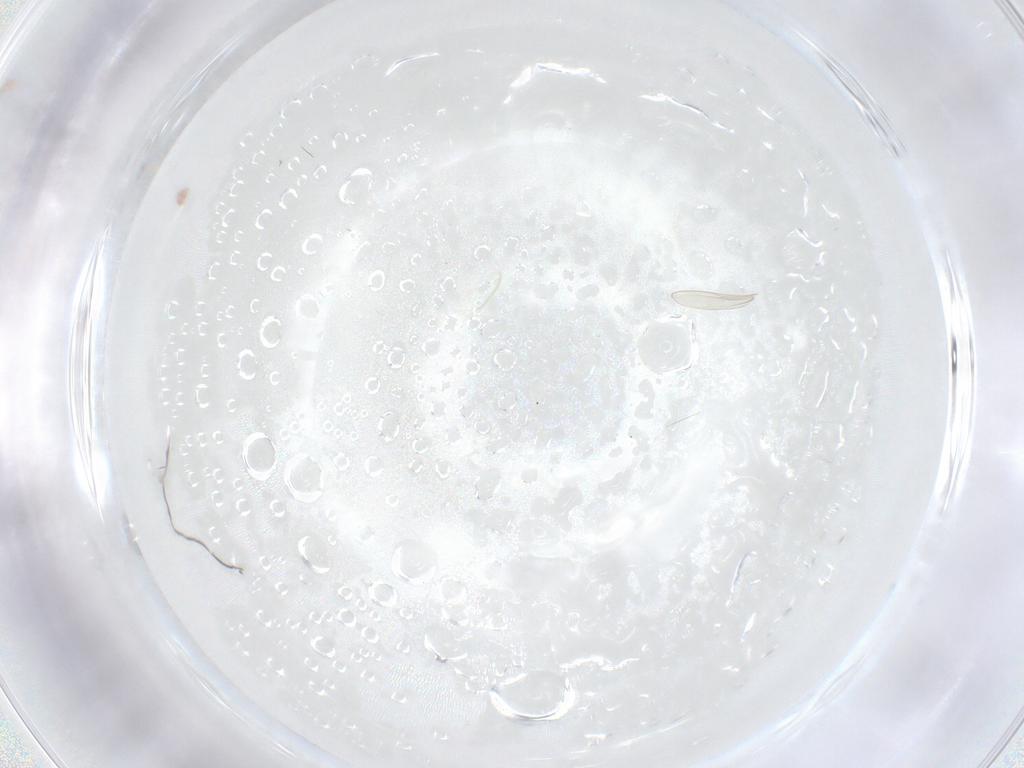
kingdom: Animalia
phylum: Arthropoda
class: Insecta
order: Diptera
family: Cecidomyiidae
